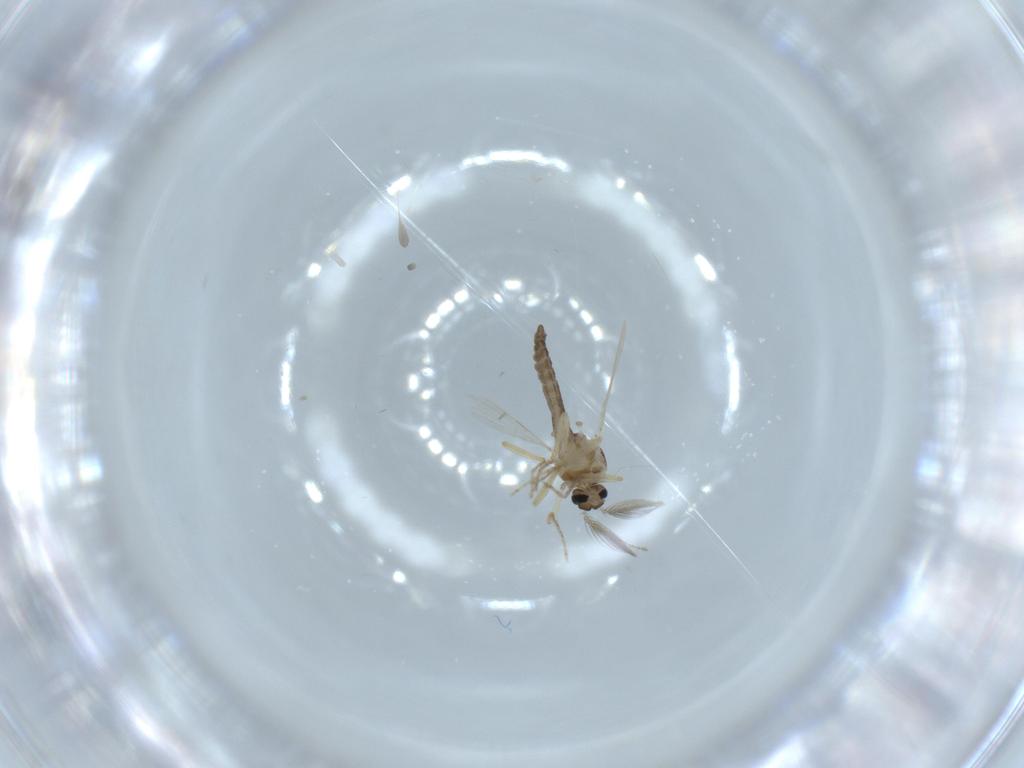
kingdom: Animalia
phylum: Arthropoda
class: Insecta
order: Diptera
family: Ceratopogonidae
